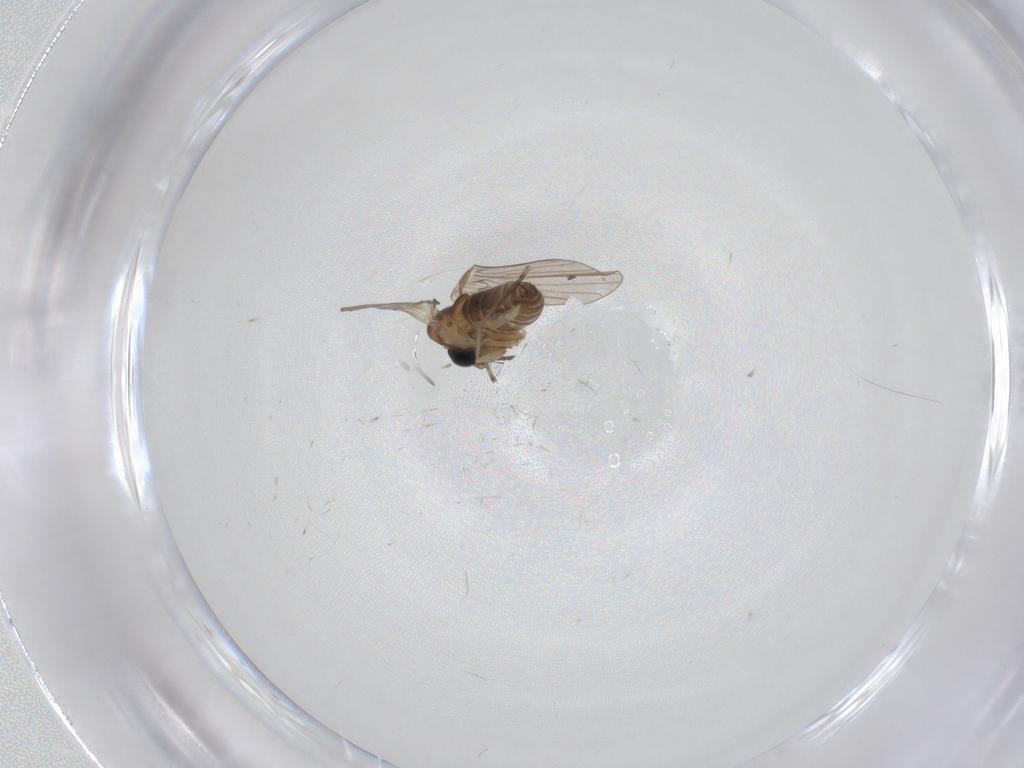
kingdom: Animalia
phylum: Arthropoda
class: Insecta
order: Diptera
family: Lauxaniidae
